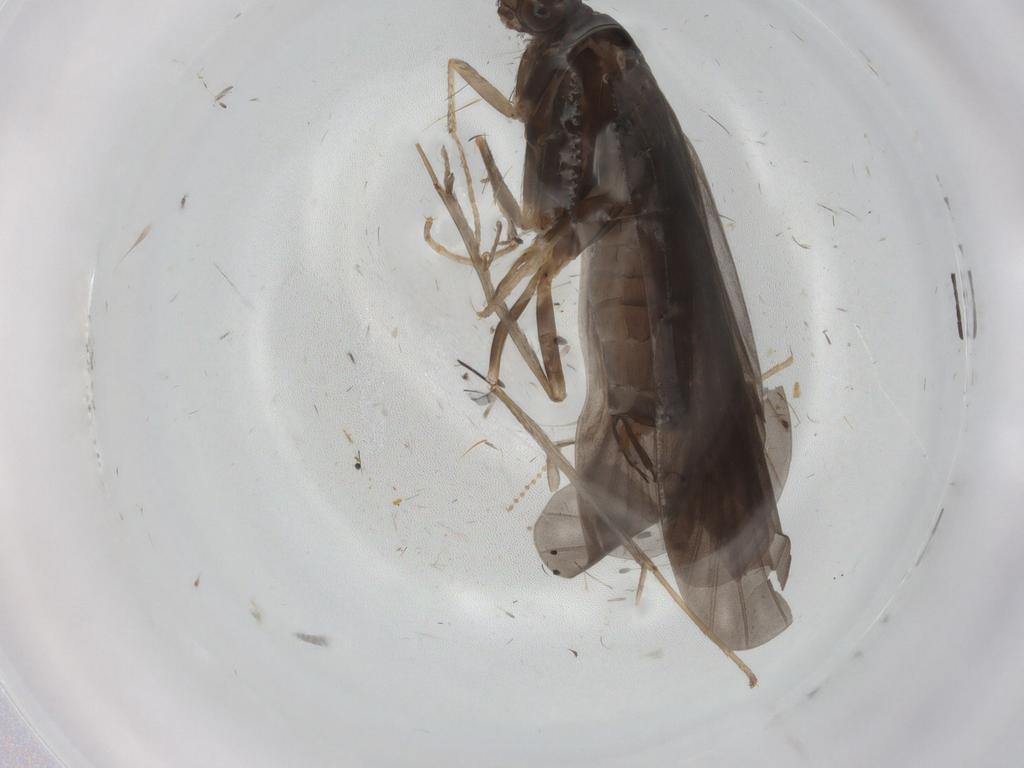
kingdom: Animalia
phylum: Arthropoda
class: Insecta
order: Trichoptera
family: Hydropsychidae
